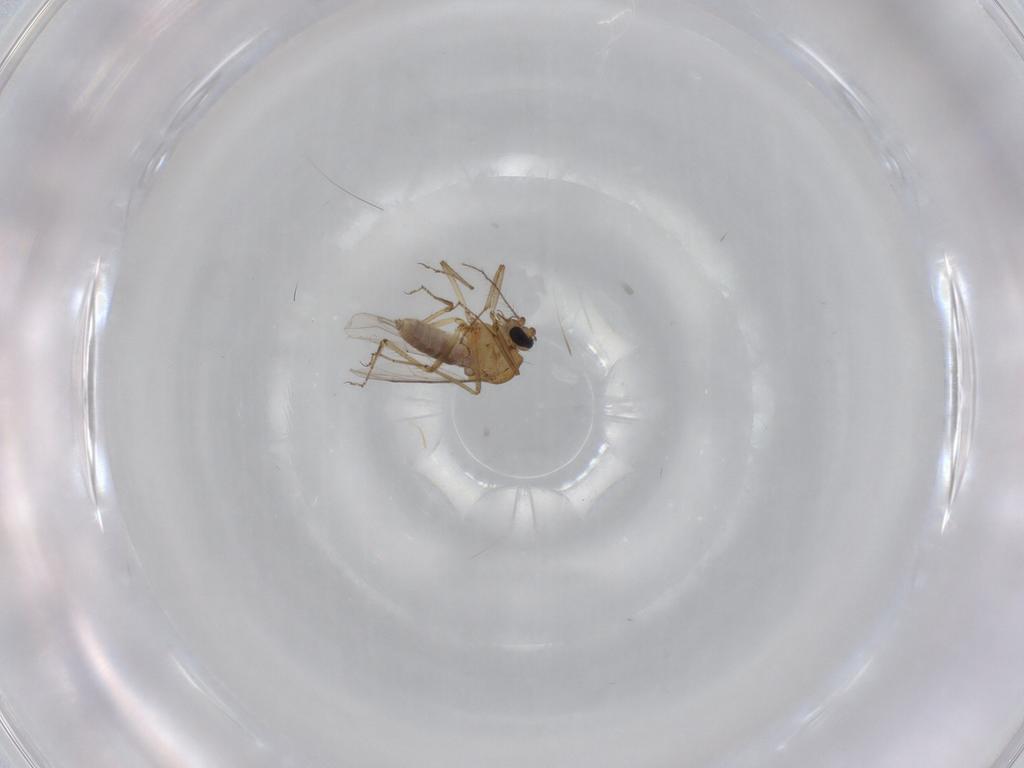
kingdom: Animalia
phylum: Arthropoda
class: Insecta
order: Diptera
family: Ceratopogonidae
